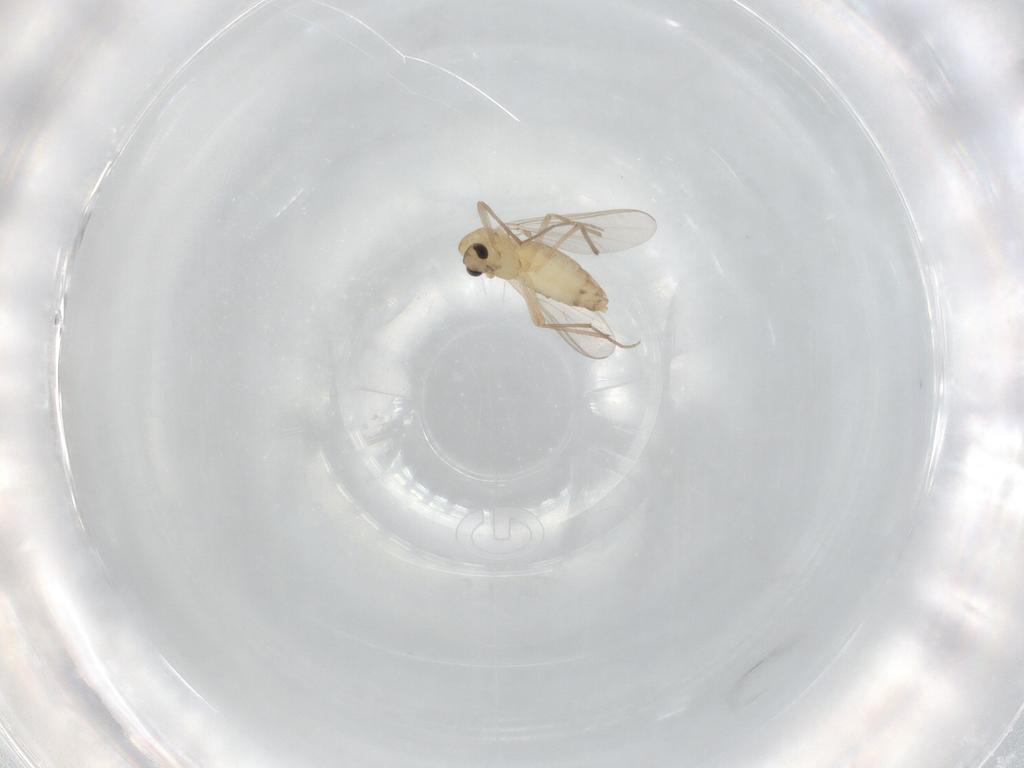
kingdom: Animalia
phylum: Arthropoda
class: Insecta
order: Diptera
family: Chironomidae
